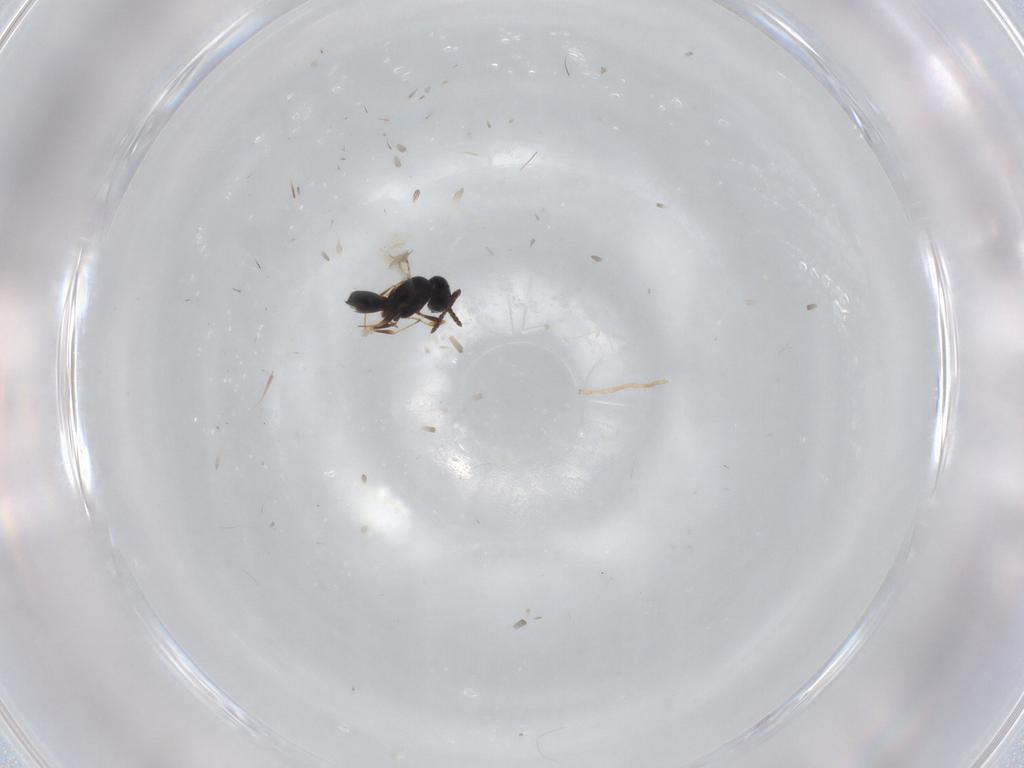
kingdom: Animalia
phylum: Arthropoda
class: Insecta
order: Hymenoptera
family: Scelionidae
